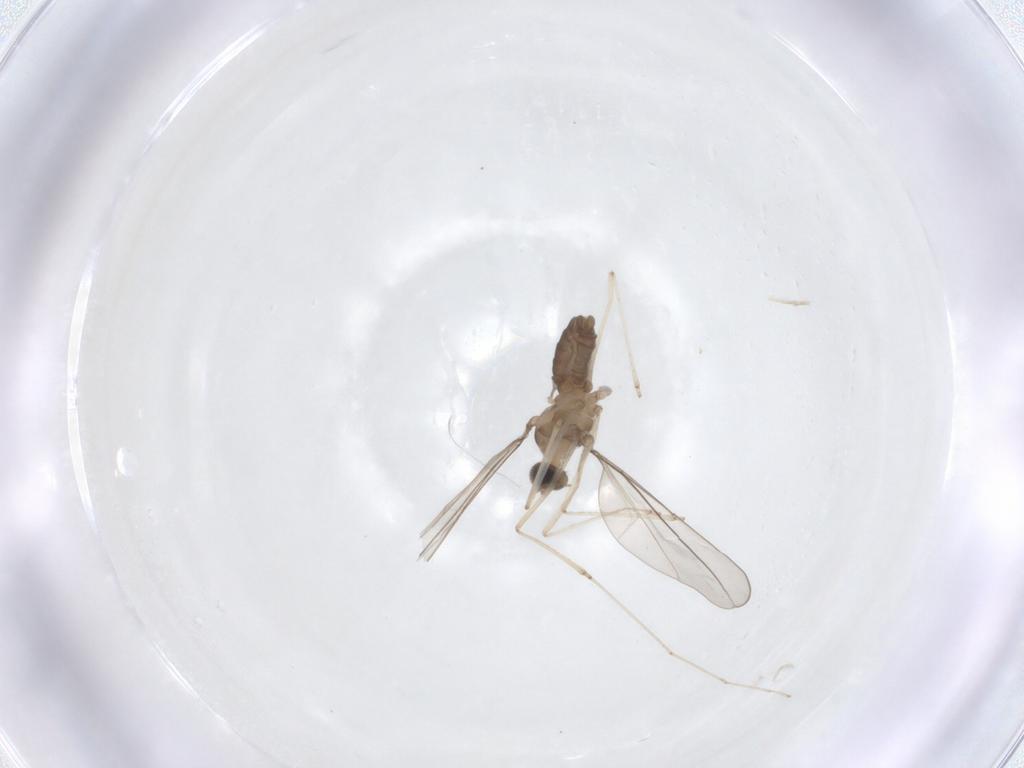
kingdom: Animalia
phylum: Arthropoda
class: Insecta
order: Diptera
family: Cecidomyiidae
